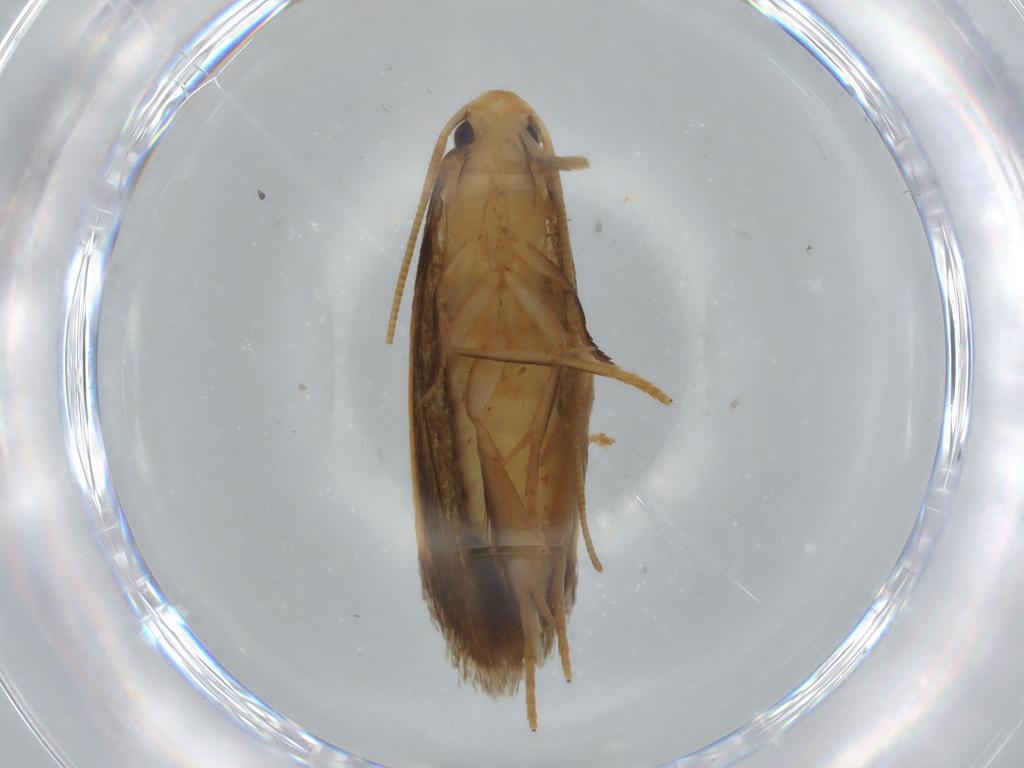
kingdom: Animalia
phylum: Arthropoda
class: Insecta
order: Lepidoptera
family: Tineidae
